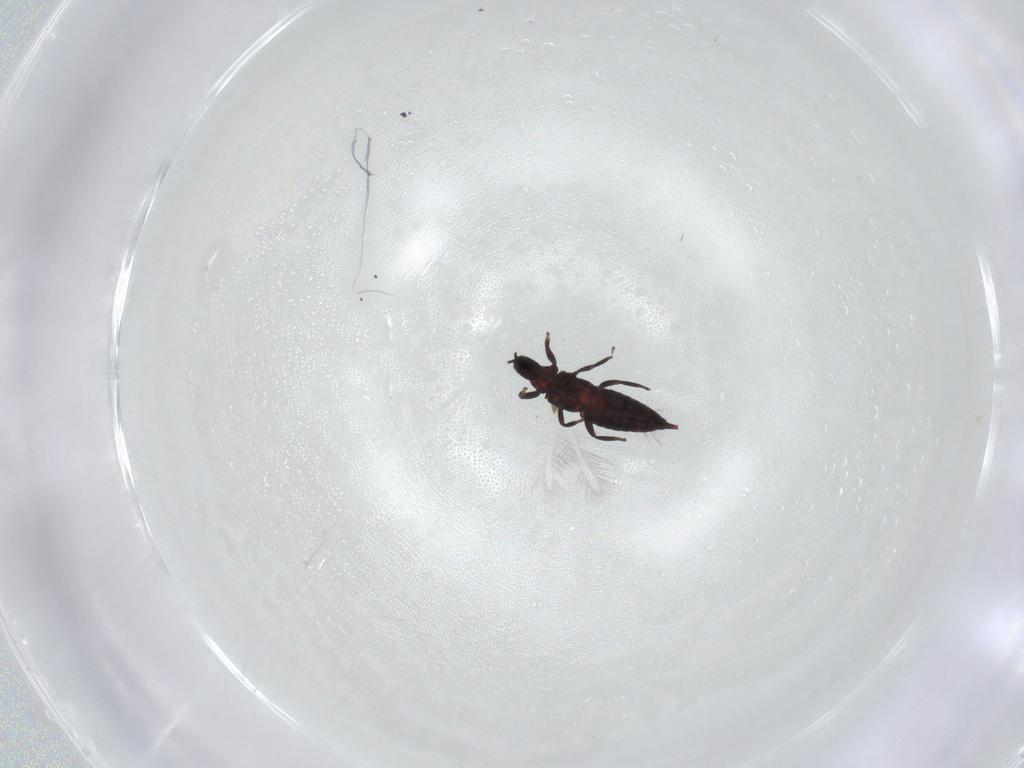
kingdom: Animalia
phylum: Arthropoda
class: Insecta
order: Thysanoptera
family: Phlaeothripidae
